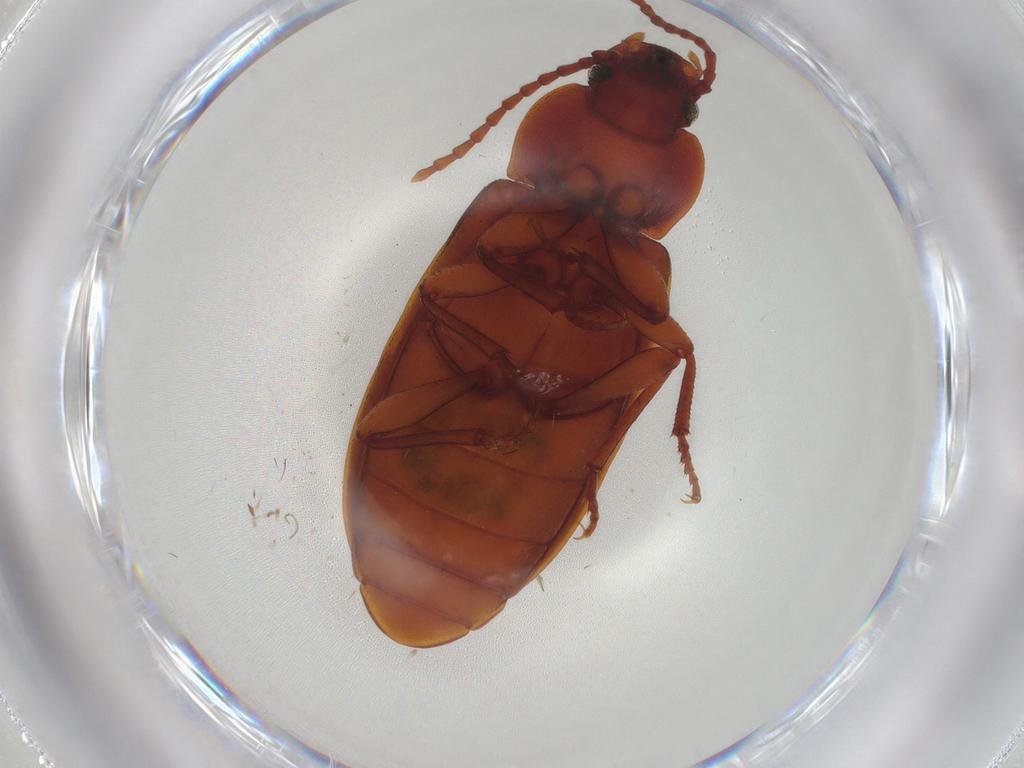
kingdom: Animalia
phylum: Arthropoda
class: Insecta
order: Coleoptera
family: Tenebrionidae
